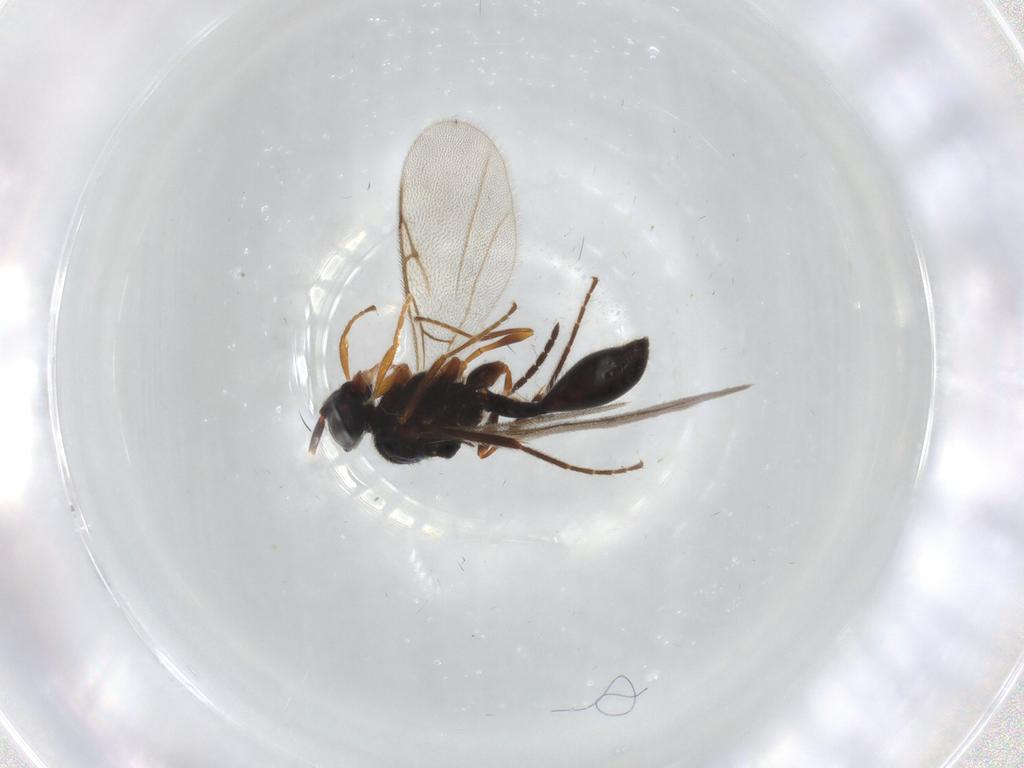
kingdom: Animalia
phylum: Arthropoda
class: Insecta
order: Hymenoptera
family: Diapriidae
